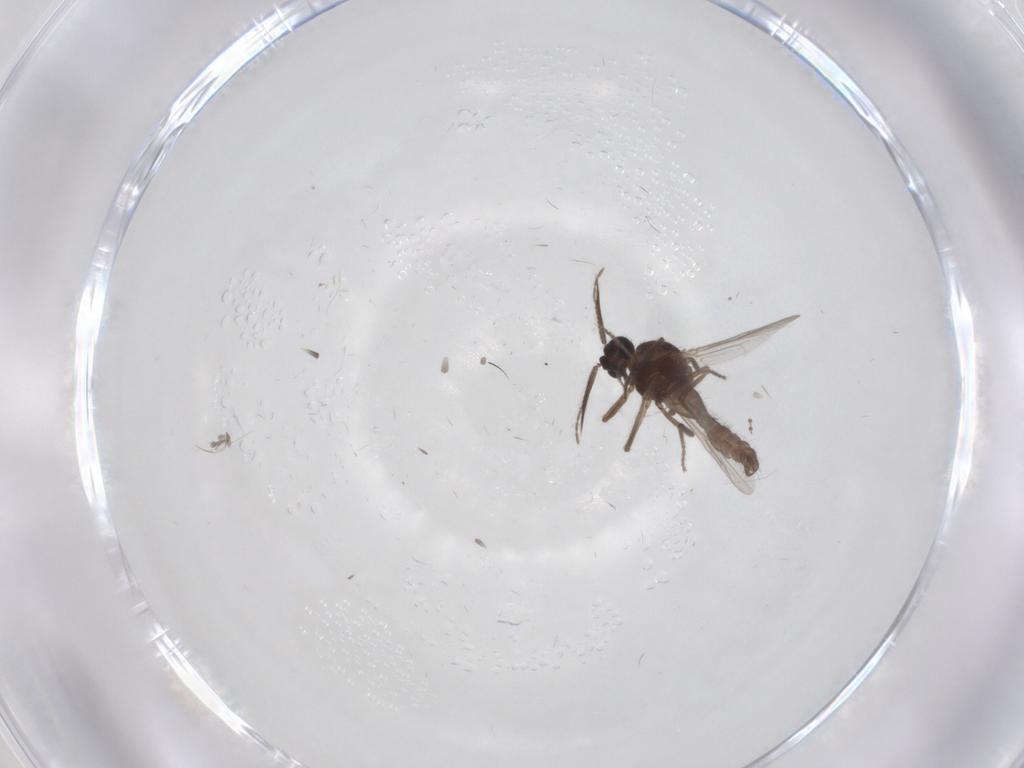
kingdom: Animalia
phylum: Arthropoda
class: Insecta
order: Diptera
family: Ceratopogonidae
